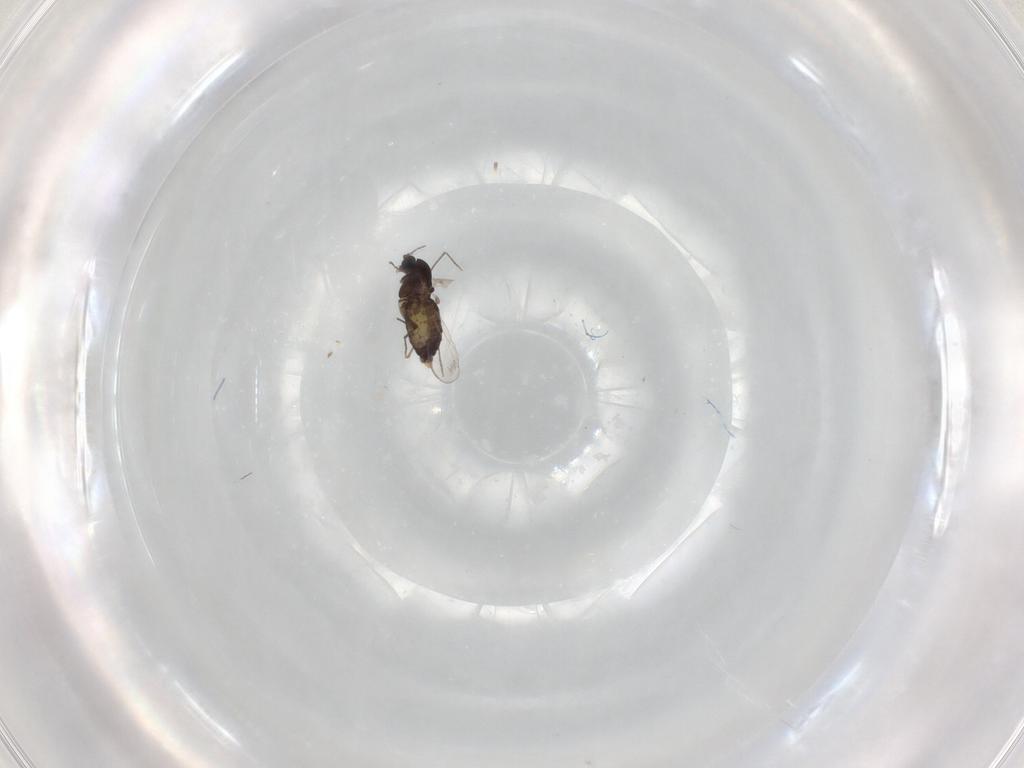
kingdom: Animalia
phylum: Arthropoda
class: Insecta
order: Diptera
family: Chironomidae
